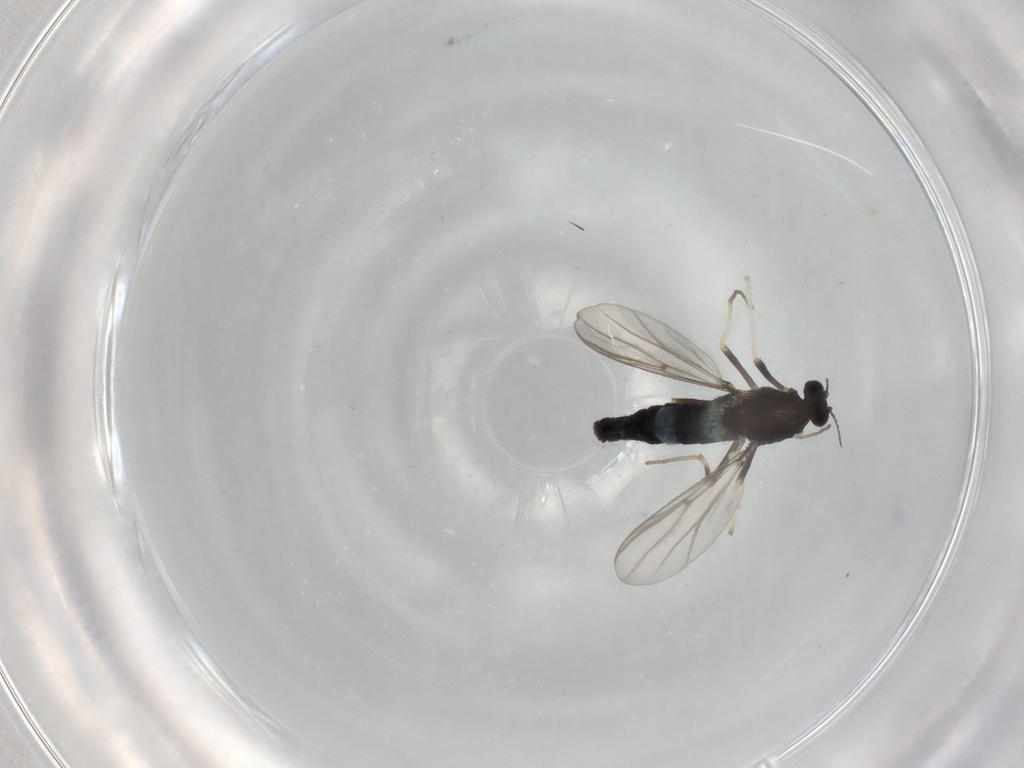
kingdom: Animalia
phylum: Arthropoda
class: Insecta
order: Diptera
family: Chironomidae
